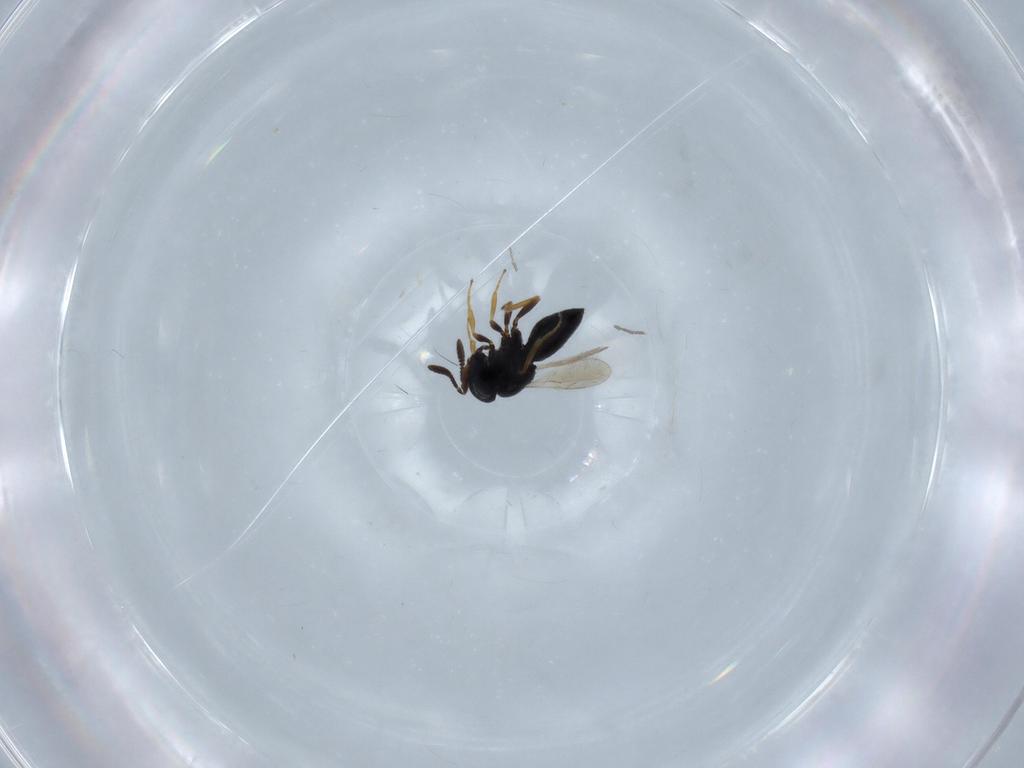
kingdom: Animalia
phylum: Arthropoda
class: Insecta
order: Hymenoptera
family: Scelionidae
